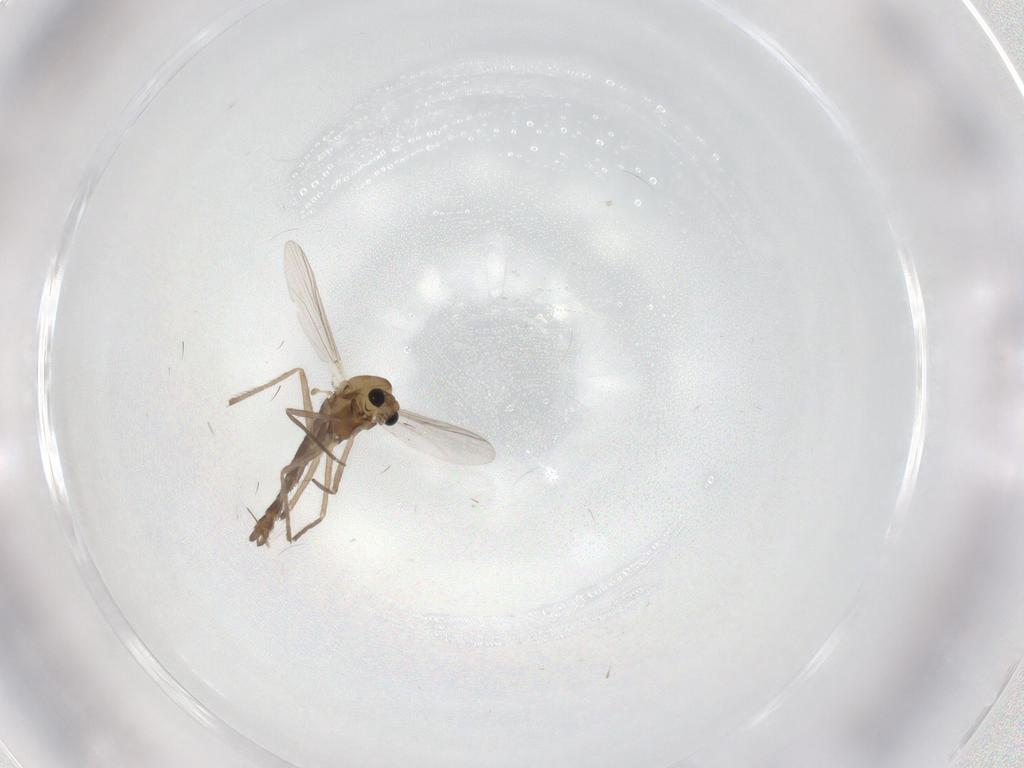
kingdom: Animalia
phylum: Arthropoda
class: Insecta
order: Diptera
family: Chironomidae
